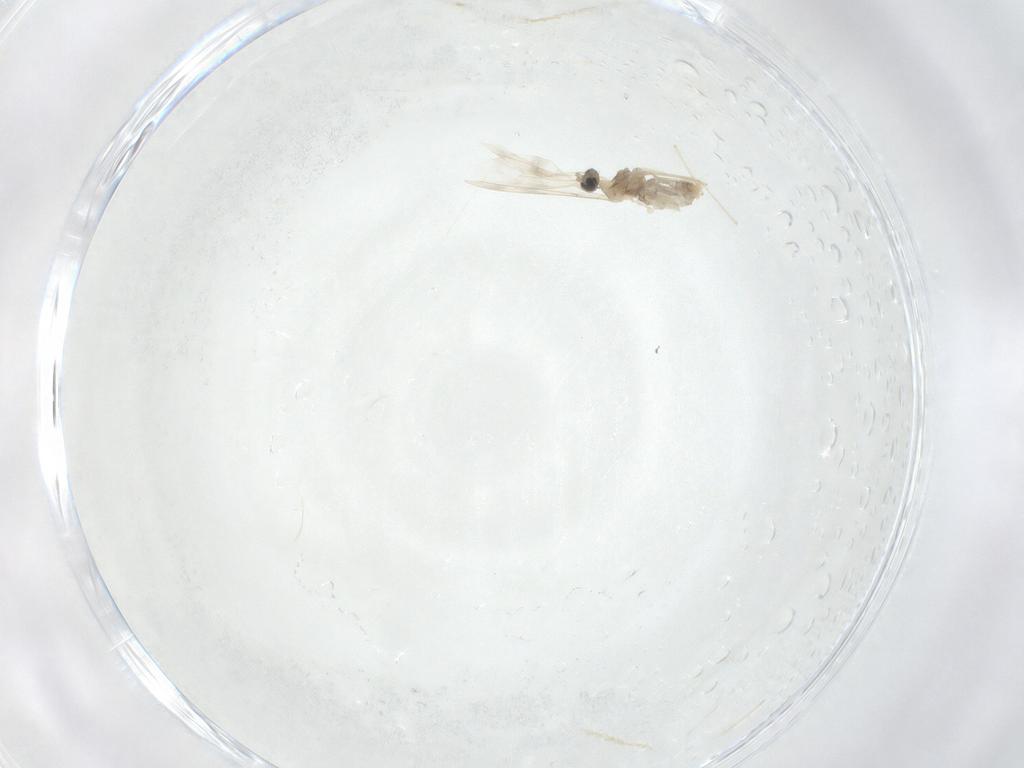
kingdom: Animalia
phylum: Arthropoda
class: Insecta
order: Diptera
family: Cecidomyiidae
